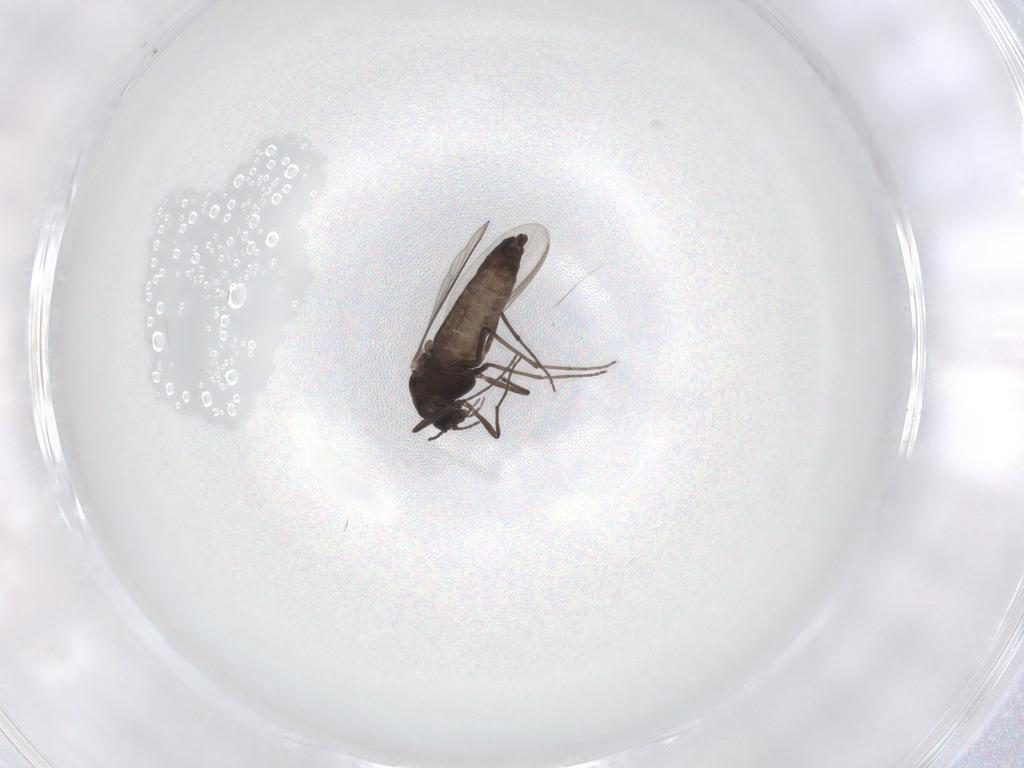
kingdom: Animalia
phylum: Arthropoda
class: Insecta
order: Diptera
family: Chironomidae
